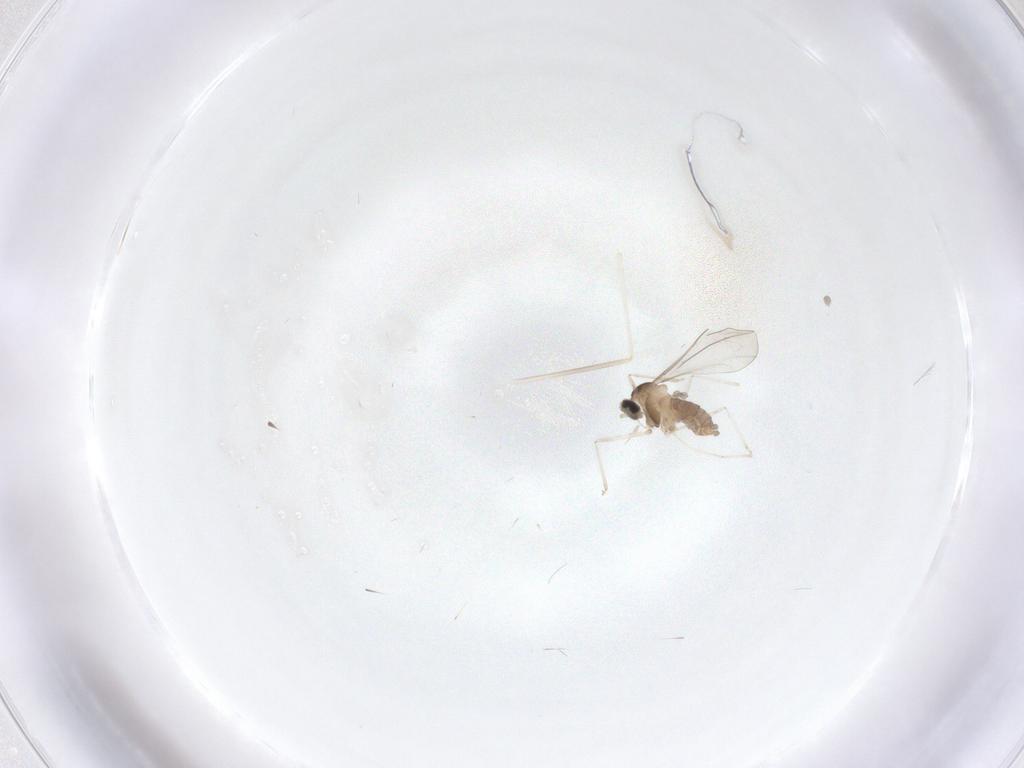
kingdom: Animalia
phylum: Arthropoda
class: Insecta
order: Diptera
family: Cecidomyiidae
